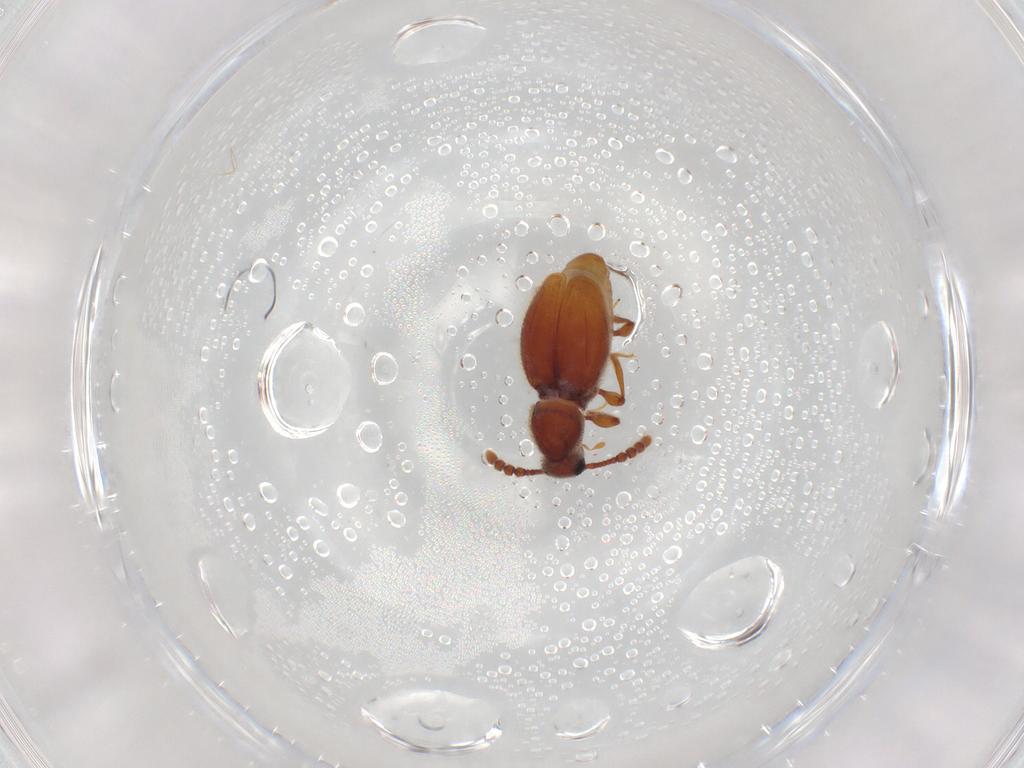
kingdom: Animalia
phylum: Arthropoda
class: Insecta
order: Coleoptera
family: Staphylinidae
